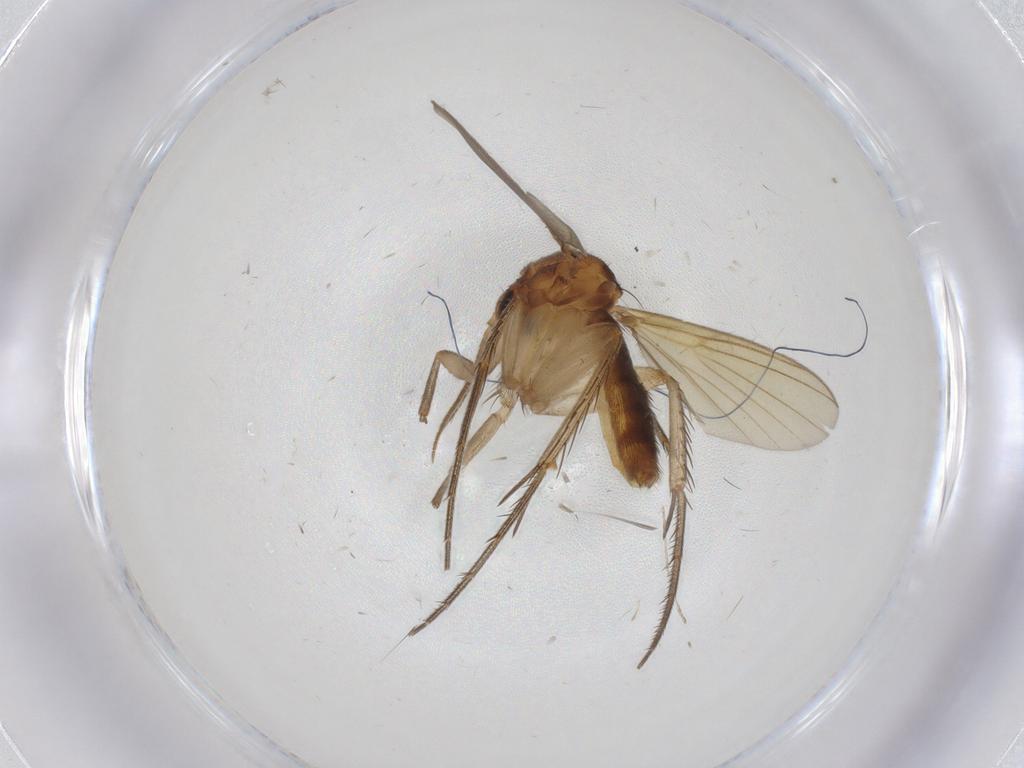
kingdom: Animalia
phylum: Arthropoda
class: Insecta
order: Diptera
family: Mycetophilidae
